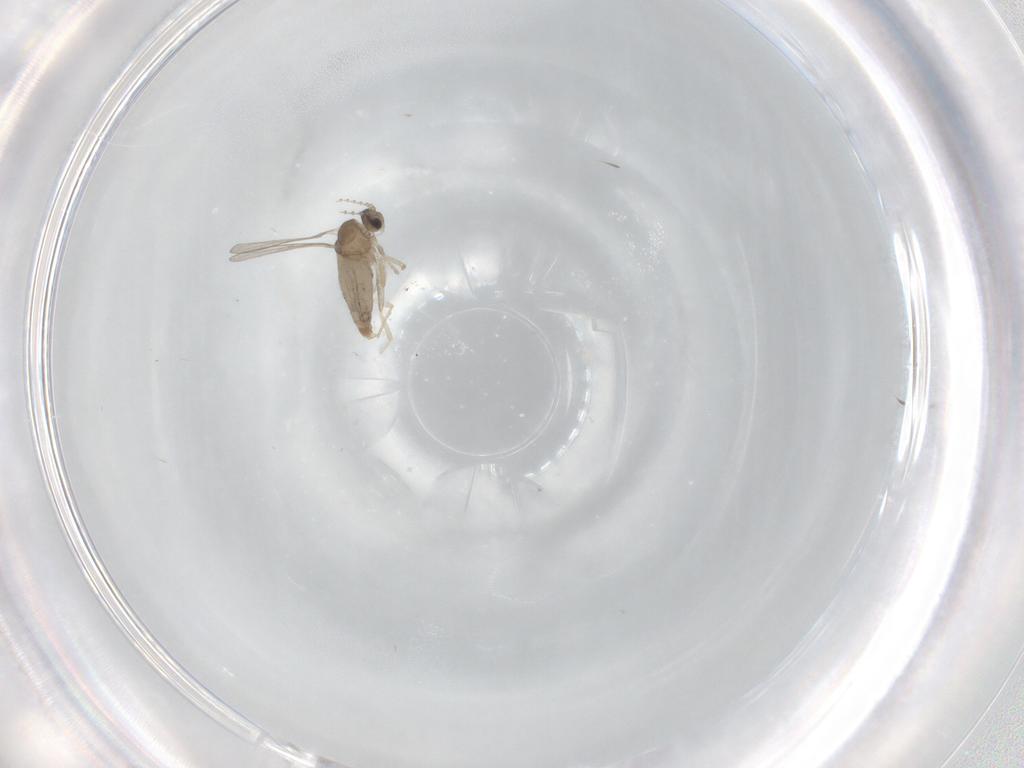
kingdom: Animalia
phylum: Arthropoda
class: Insecta
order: Diptera
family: Cecidomyiidae
